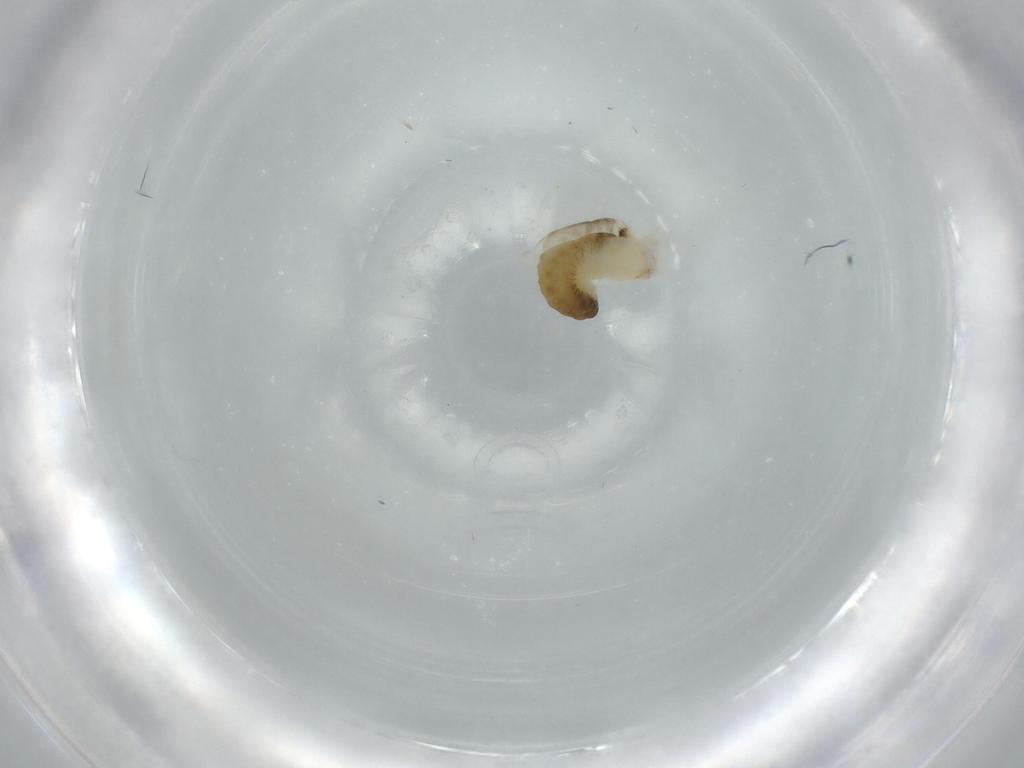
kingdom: Animalia
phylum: Arthropoda
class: Insecta
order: Hymenoptera
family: Dryinidae
